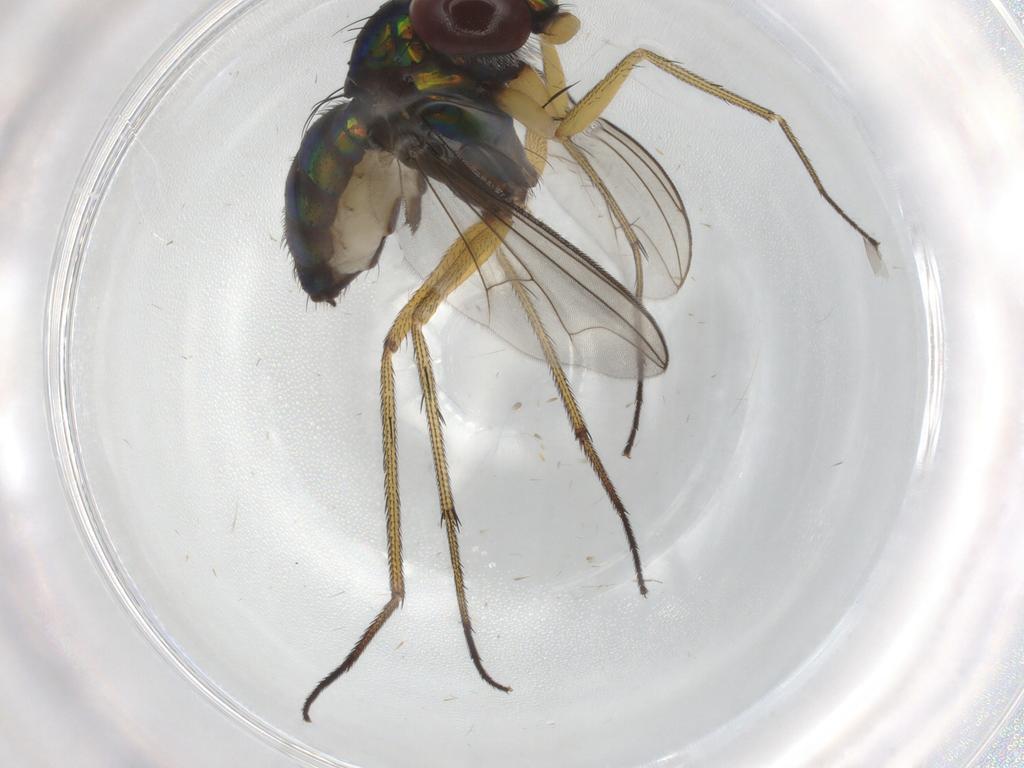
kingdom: Animalia
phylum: Arthropoda
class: Insecta
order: Diptera
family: Dolichopodidae
